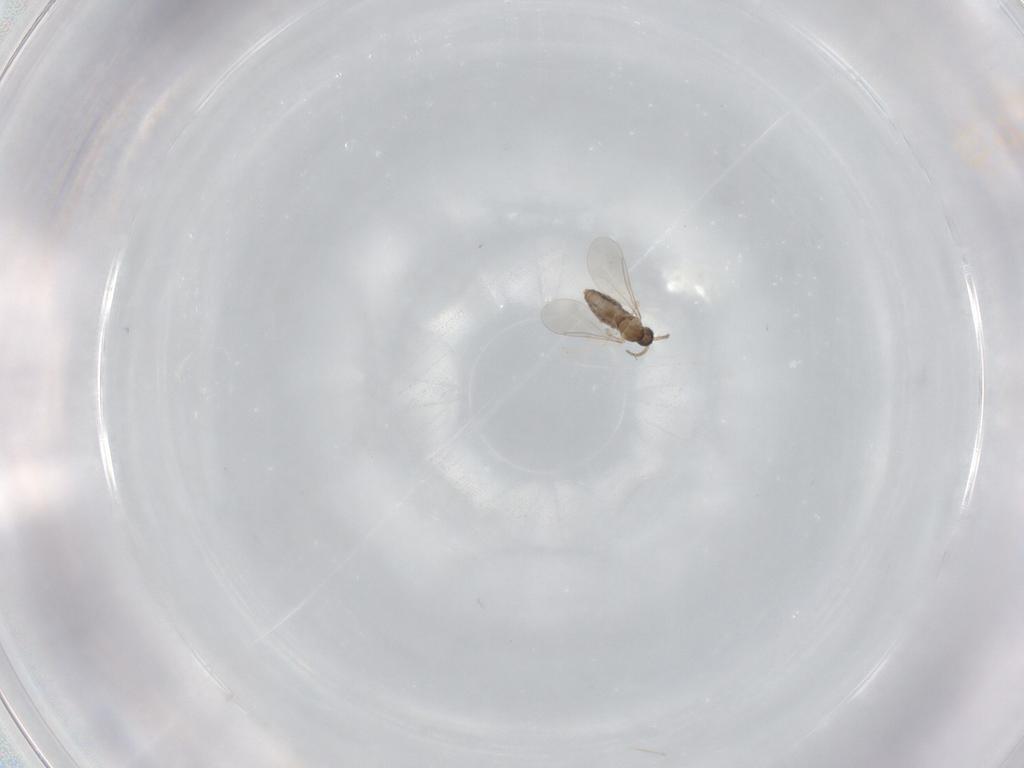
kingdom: Animalia
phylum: Arthropoda
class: Insecta
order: Diptera
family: Cecidomyiidae
